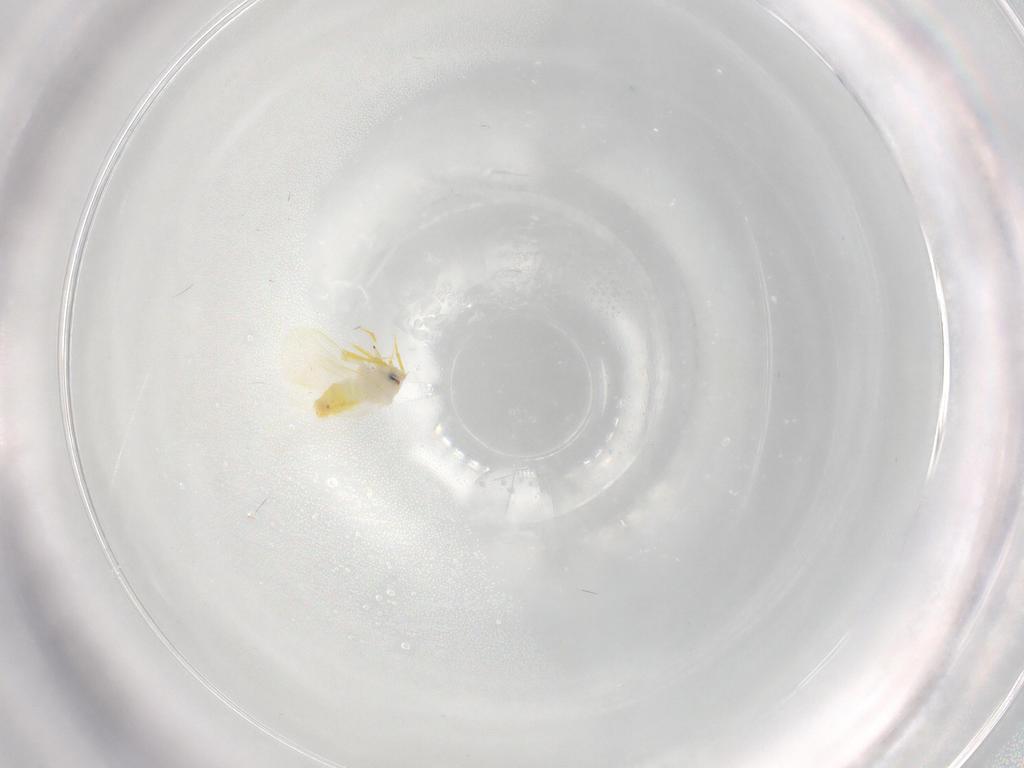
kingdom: Animalia
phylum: Arthropoda
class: Insecta
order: Hemiptera
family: Aleyrodidae
